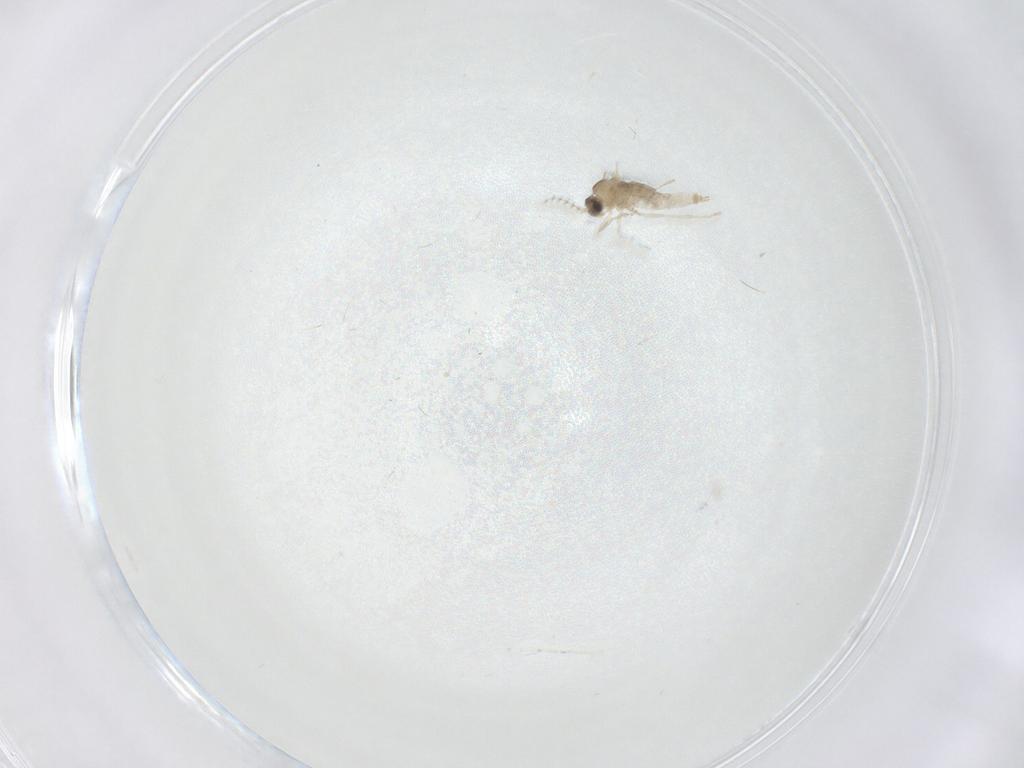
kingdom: Animalia
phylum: Arthropoda
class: Insecta
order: Diptera
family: Cecidomyiidae
